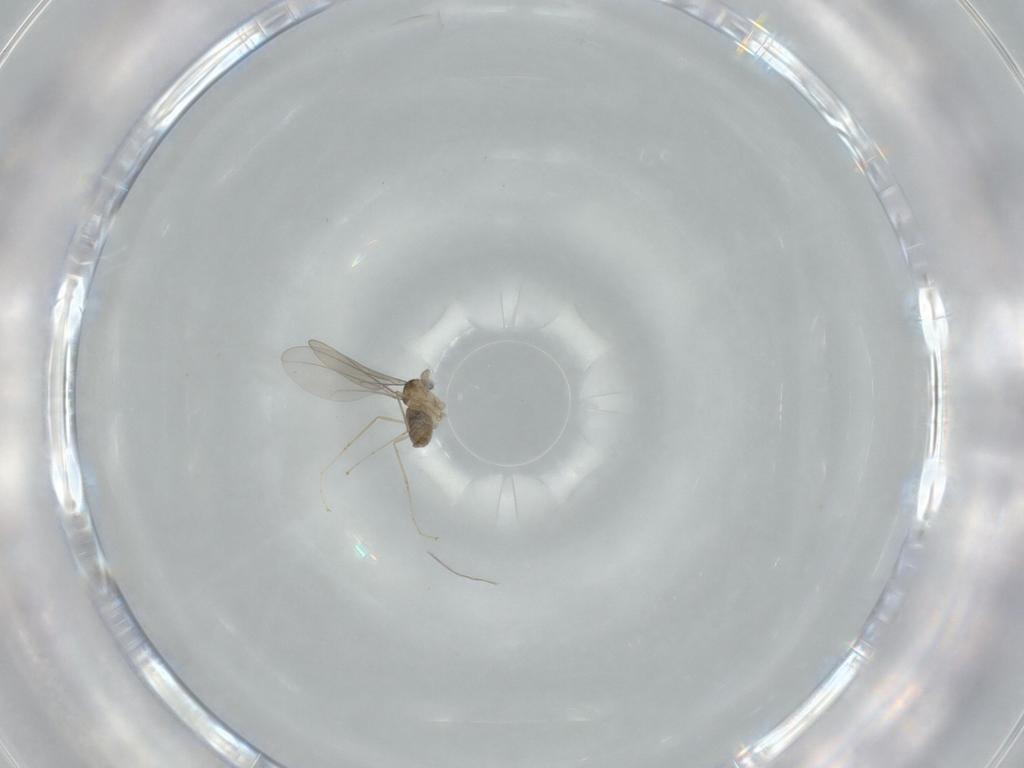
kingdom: Animalia
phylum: Arthropoda
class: Insecta
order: Diptera
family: Cecidomyiidae
